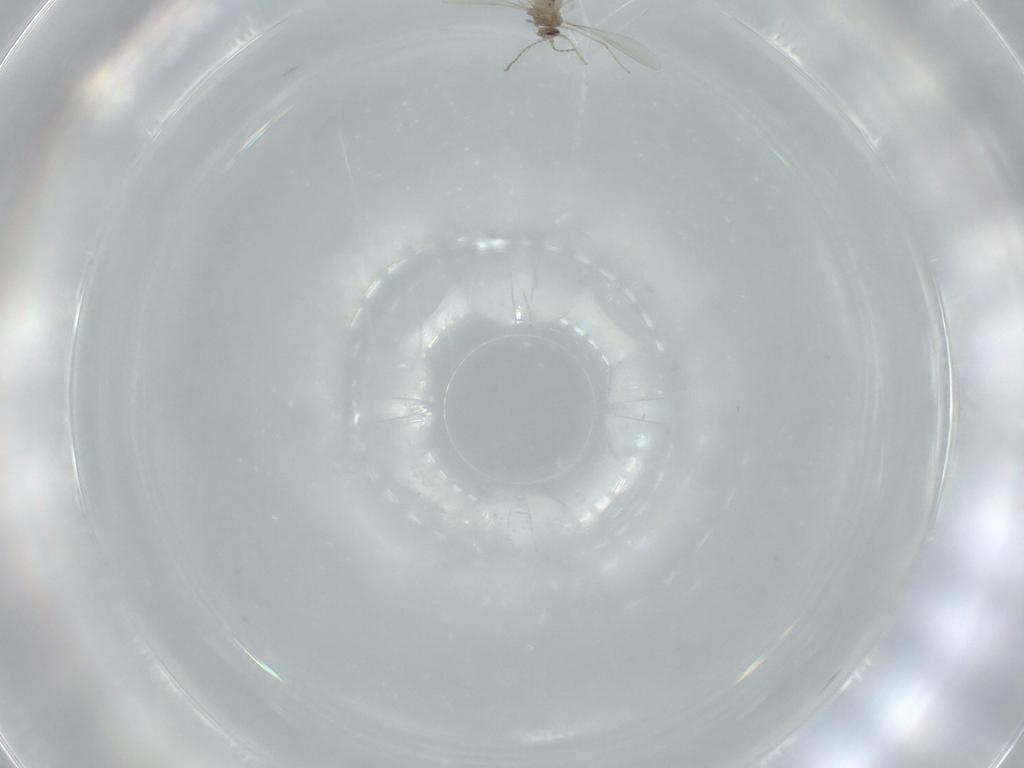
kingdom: Animalia
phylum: Arthropoda
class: Insecta
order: Diptera
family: Cecidomyiidae
